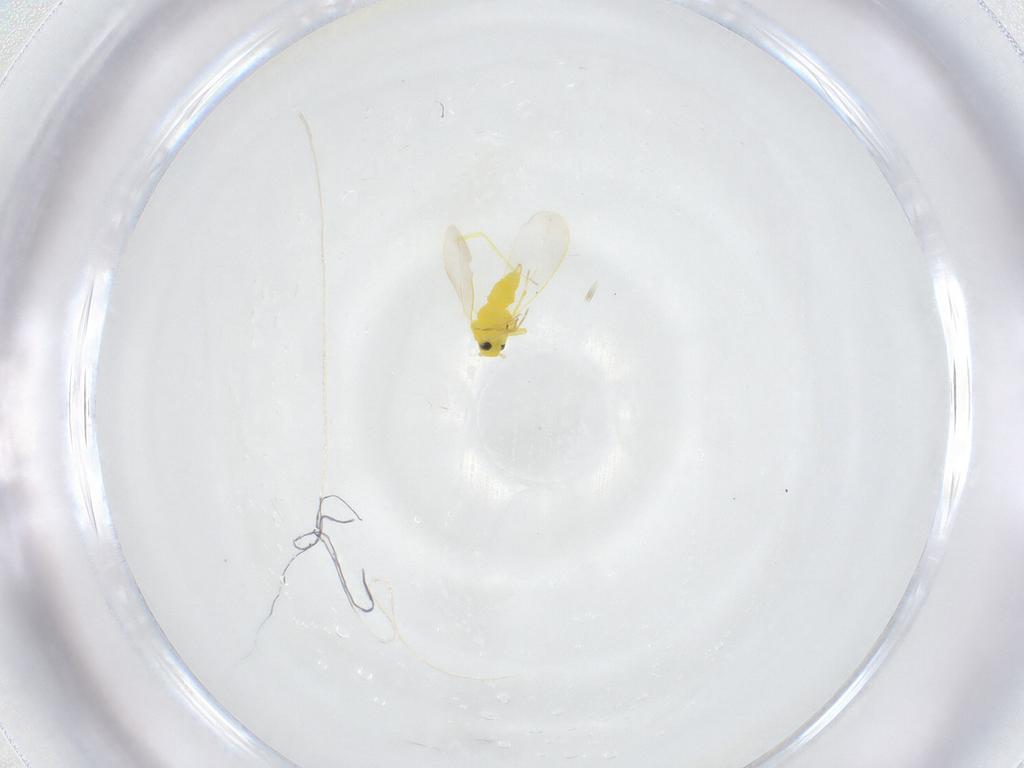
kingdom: Animalia
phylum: Arthropoda
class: Insecta
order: Hemiptera
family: Aleyrodidae
